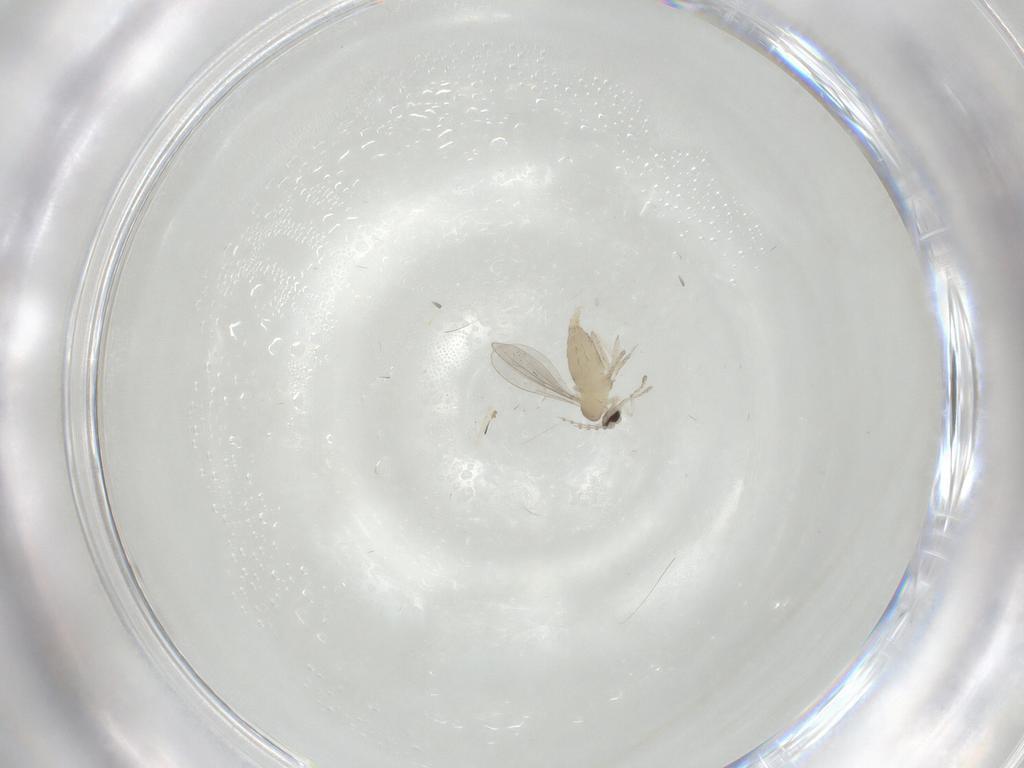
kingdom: Animalia
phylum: Arthropoda
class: Insecta
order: Diptera
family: Cecidomyiidae
